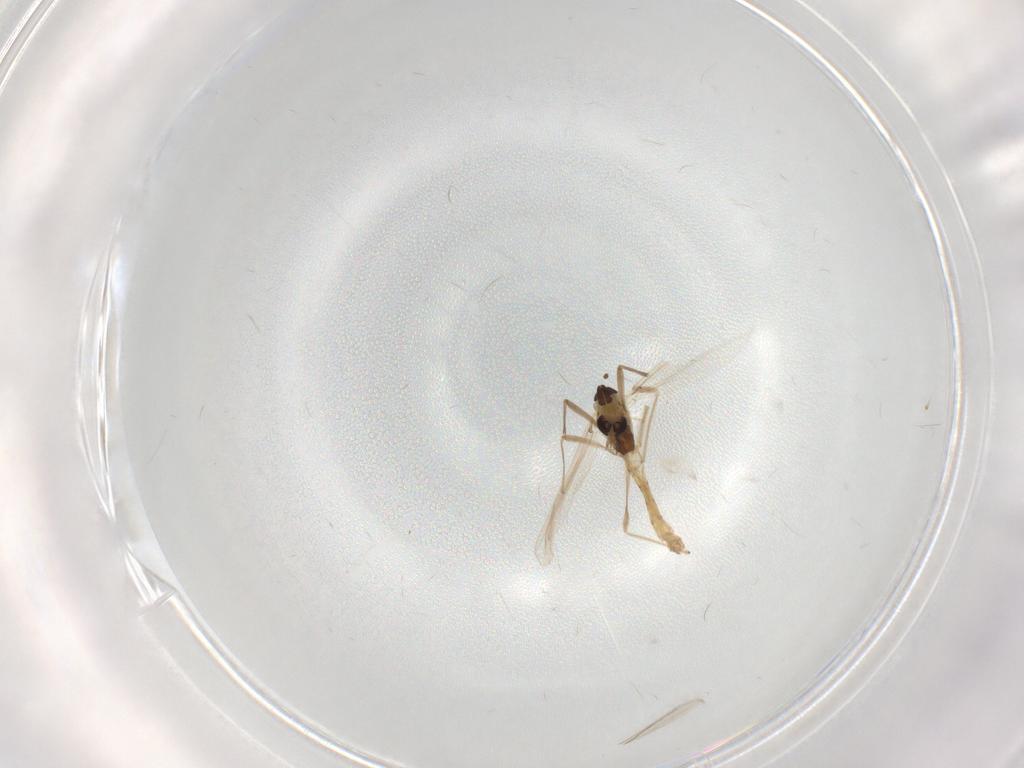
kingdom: Animalia
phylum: Arthropoda
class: Insecta
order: Diptera
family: Chironomidae
